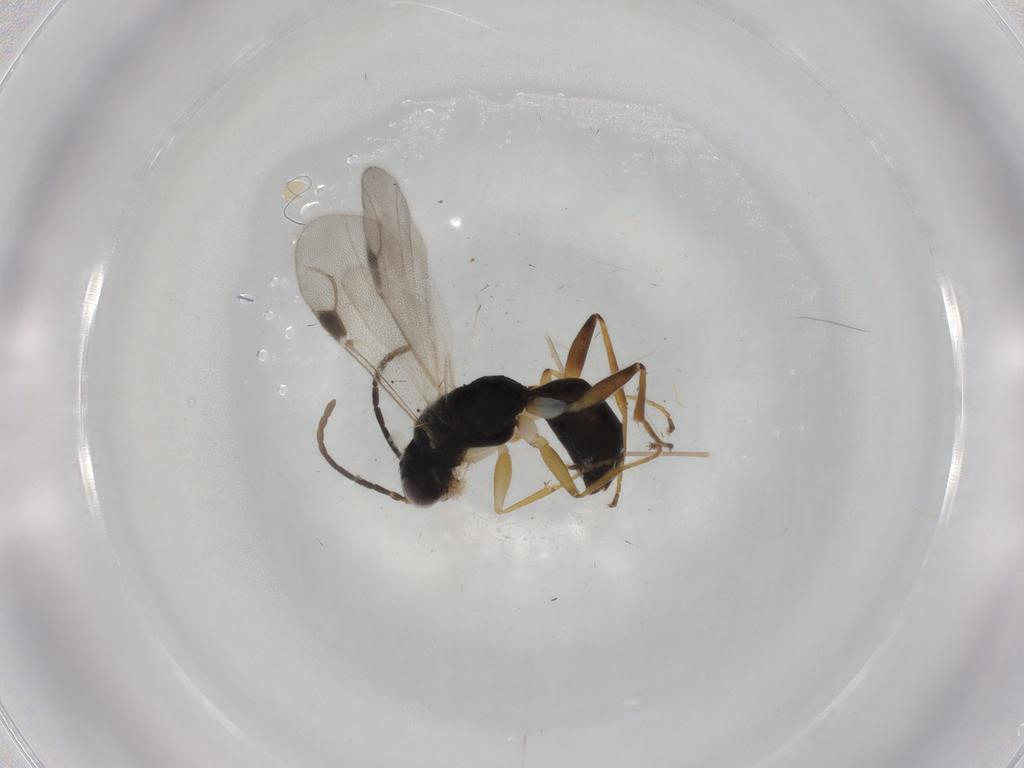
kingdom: Animalia
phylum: Arthropoda
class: Insecta
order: Hymenoptera
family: Dryinidae
